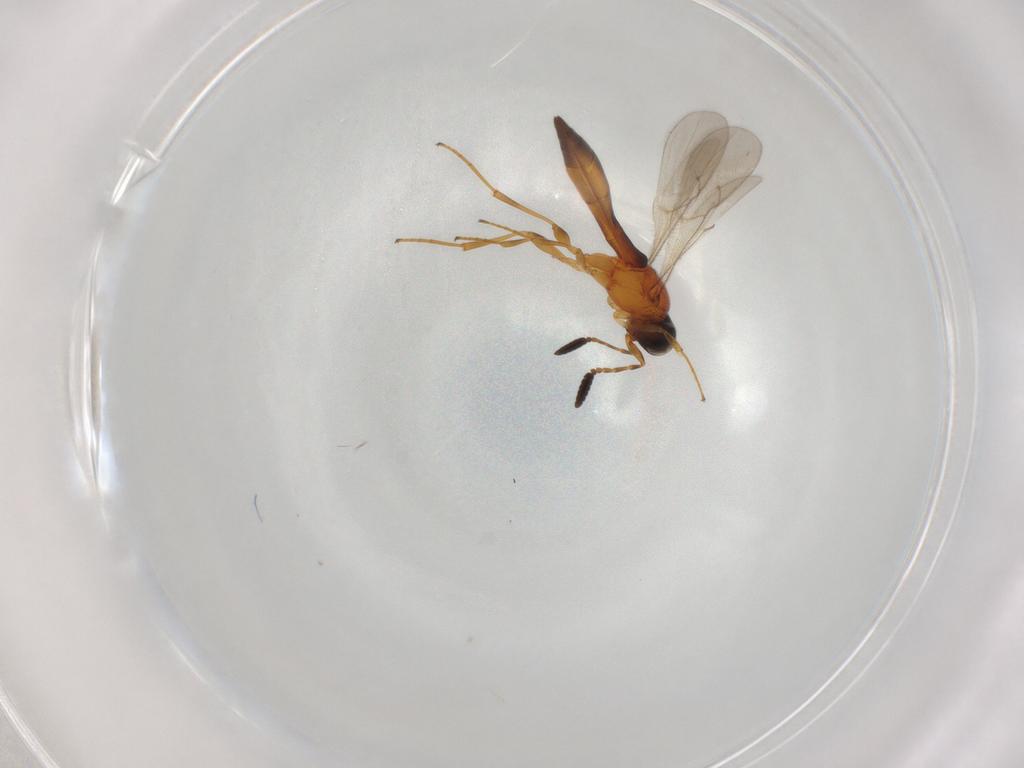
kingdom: Animalia
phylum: Arthropoda
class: Insecta
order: Hymenoptera
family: Scelionidae
